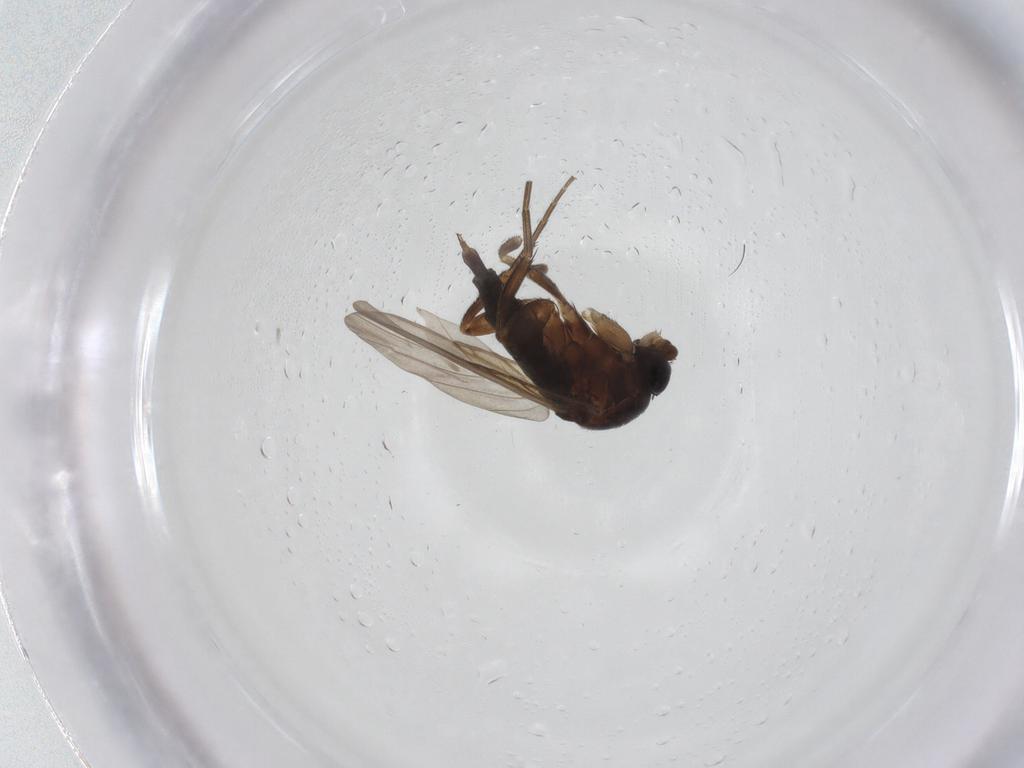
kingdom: Animalia
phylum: Arthropoda
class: Insecta
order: Diptera
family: Limoniidae
